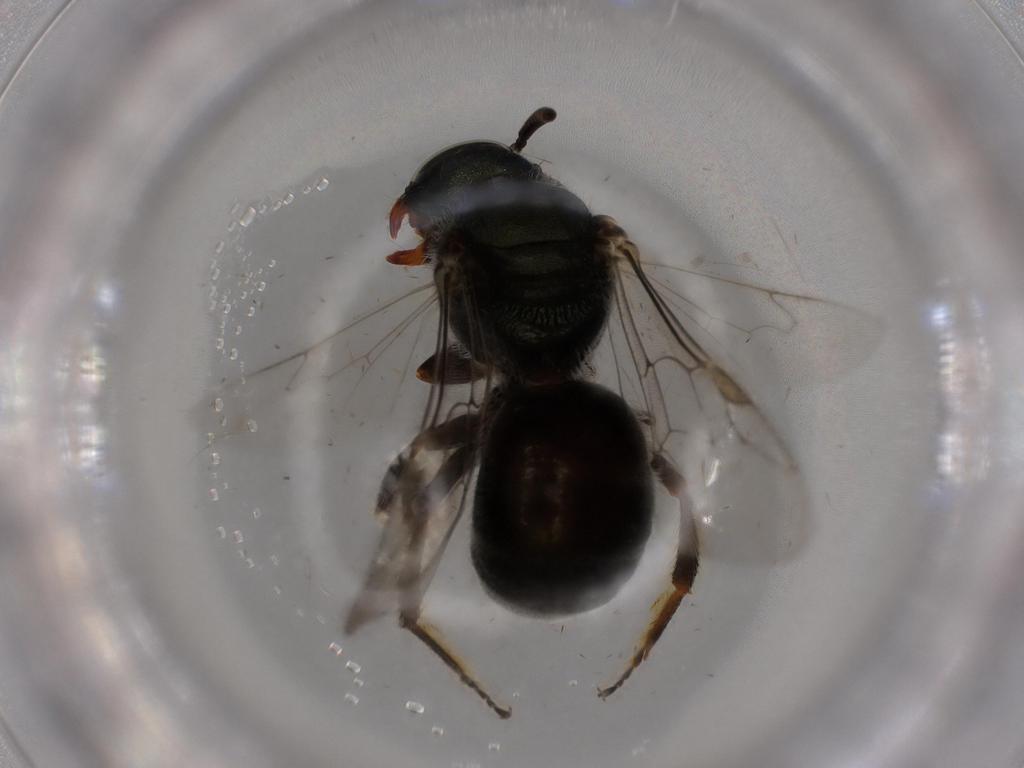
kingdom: Animalia
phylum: Arthropoda
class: Insecta
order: Hymenoptera
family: Halictidae
